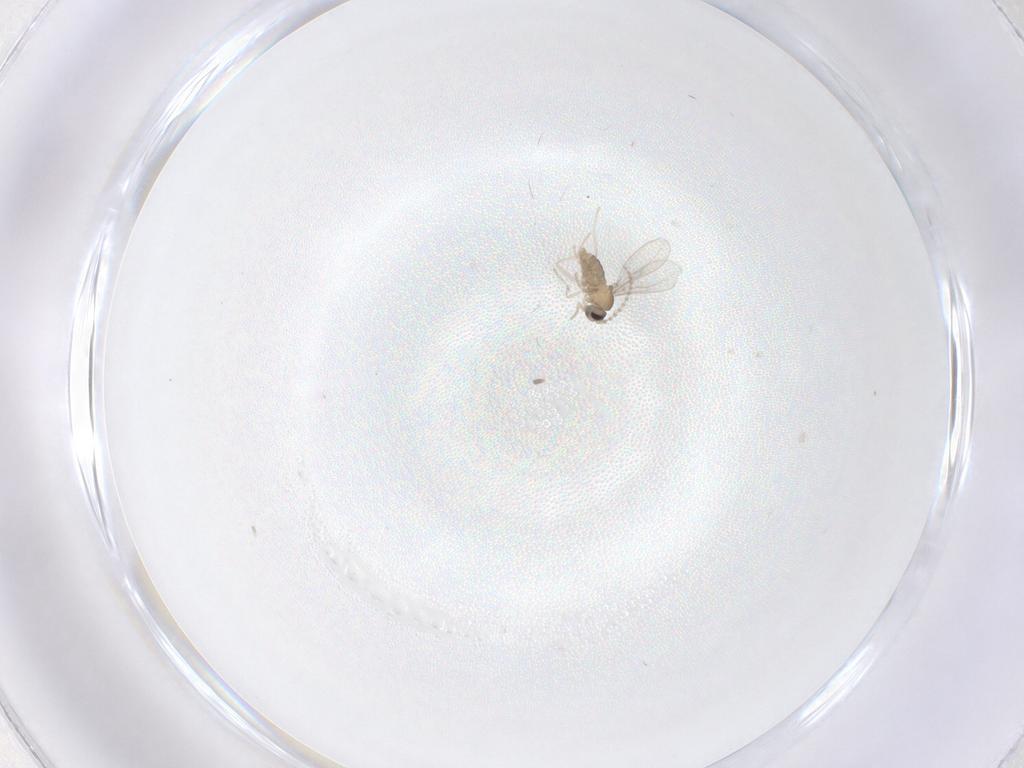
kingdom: Animalia
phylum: Arthropoda
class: Insecta
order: Diptera
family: Cecidomyiidae
